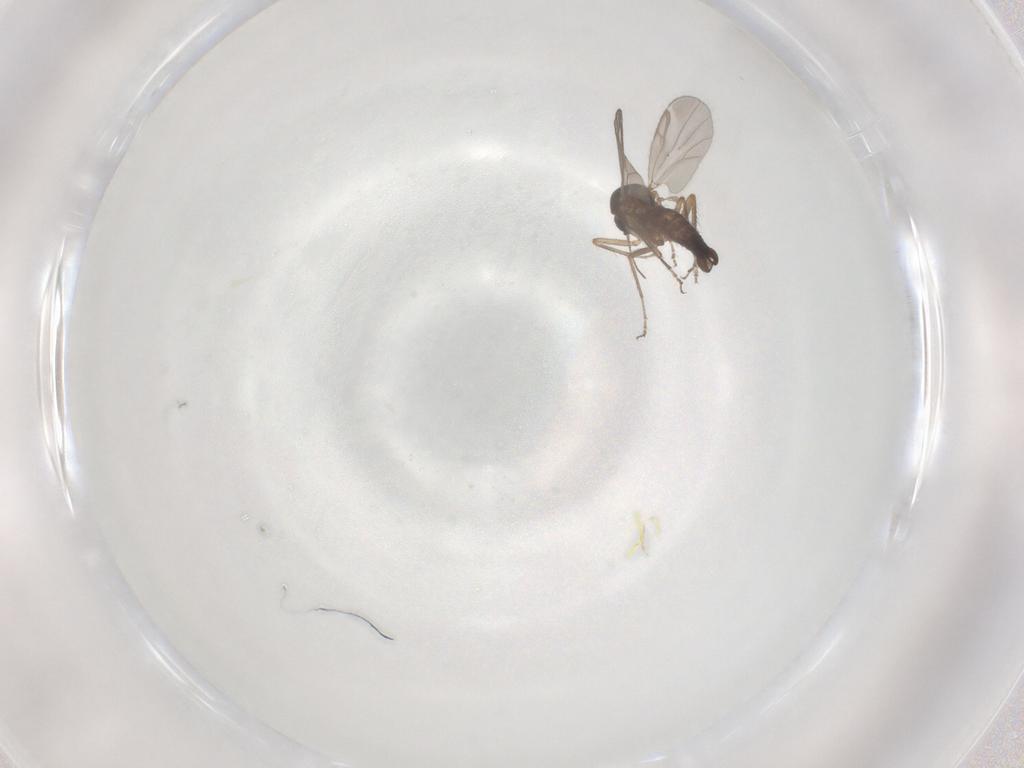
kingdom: Animalia
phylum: Arthropoda
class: Insecta
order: Diptera
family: Ceratopogonidae
